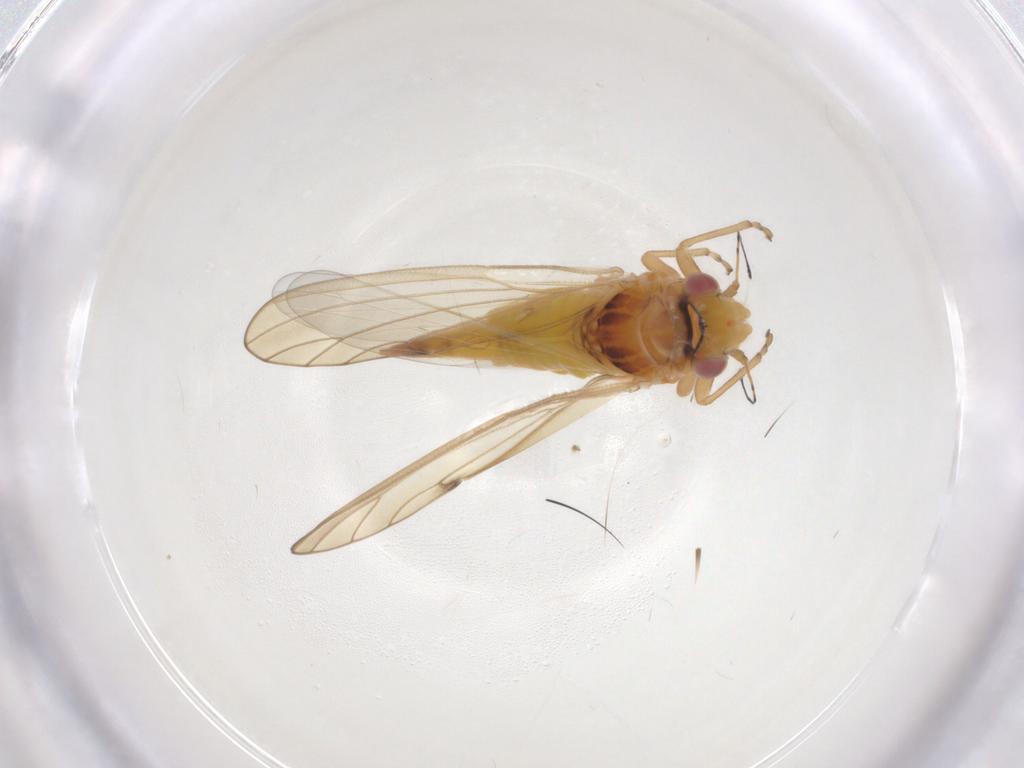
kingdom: Animalia
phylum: Arthropoda
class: Insecta
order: Hemiptera
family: Psylloidea_incertae_sedis
